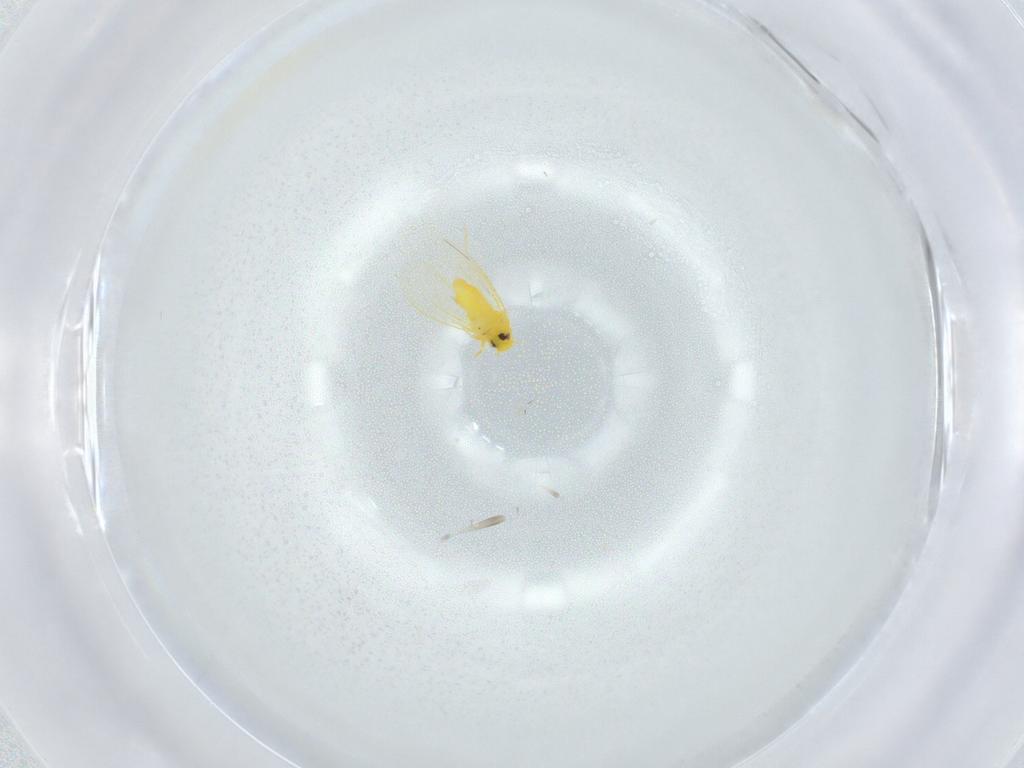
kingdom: Animalia
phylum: Arthropoda
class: Insecta
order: Hemiptera
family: Aleyrodidae
